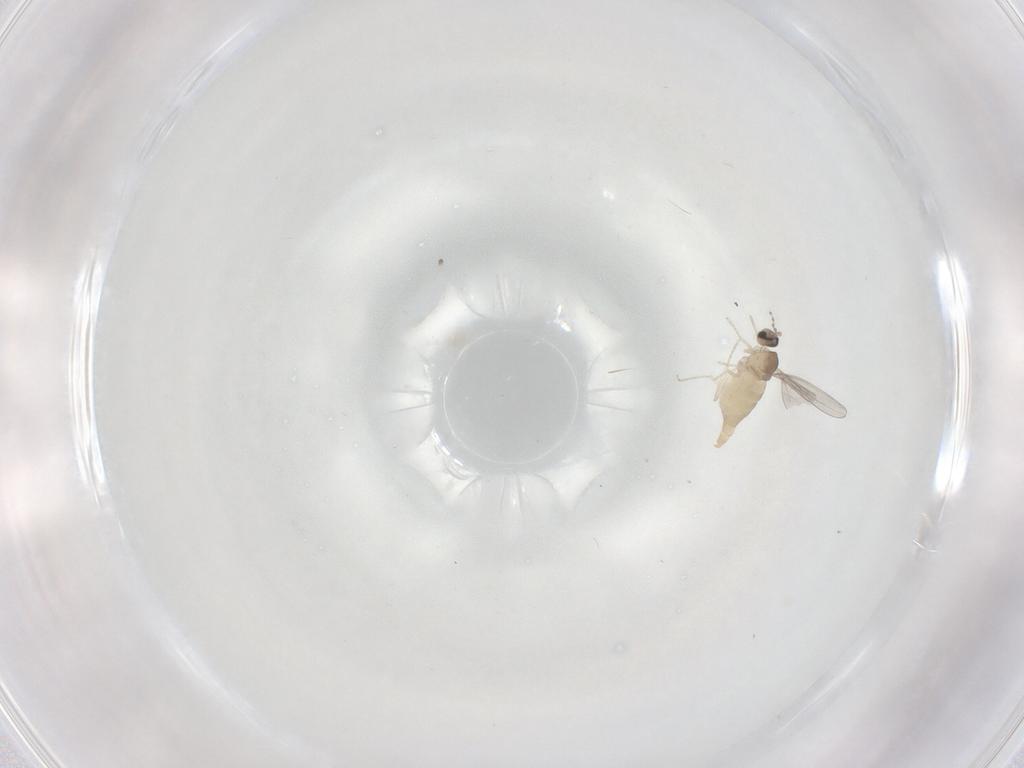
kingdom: Animalia
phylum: Arthropoda
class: Insecta
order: Diptera
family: Cecidomyiidae
